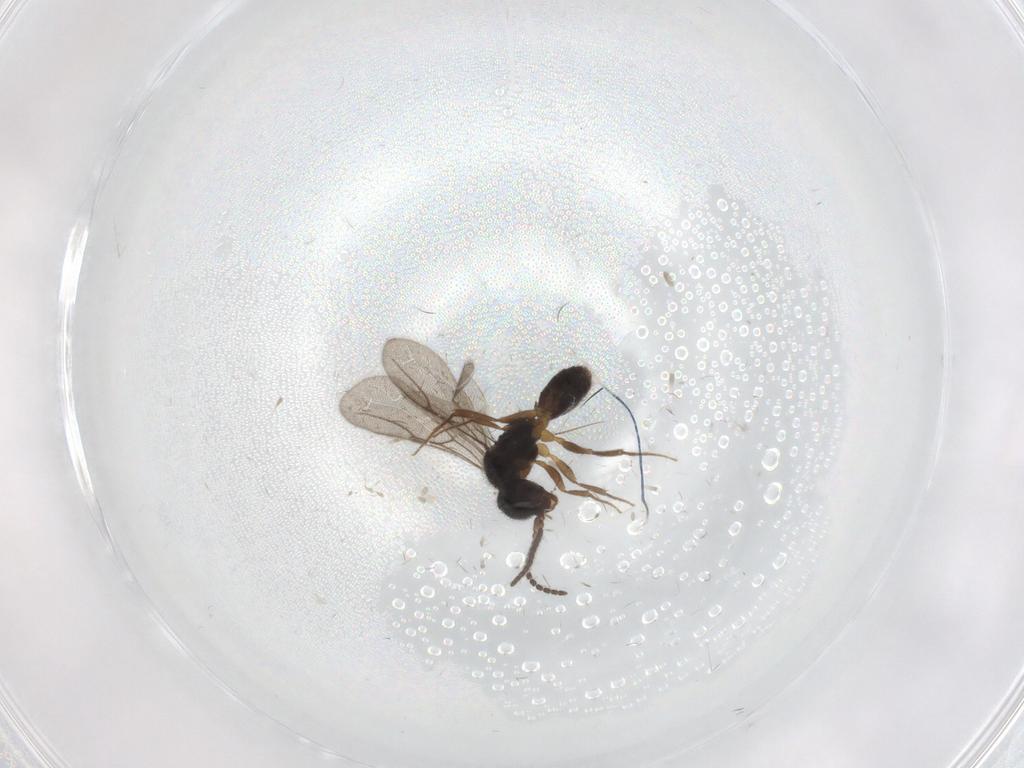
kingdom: Animalia
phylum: Arthropoda
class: Insecta
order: Hymenoptera
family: Bethylidae
